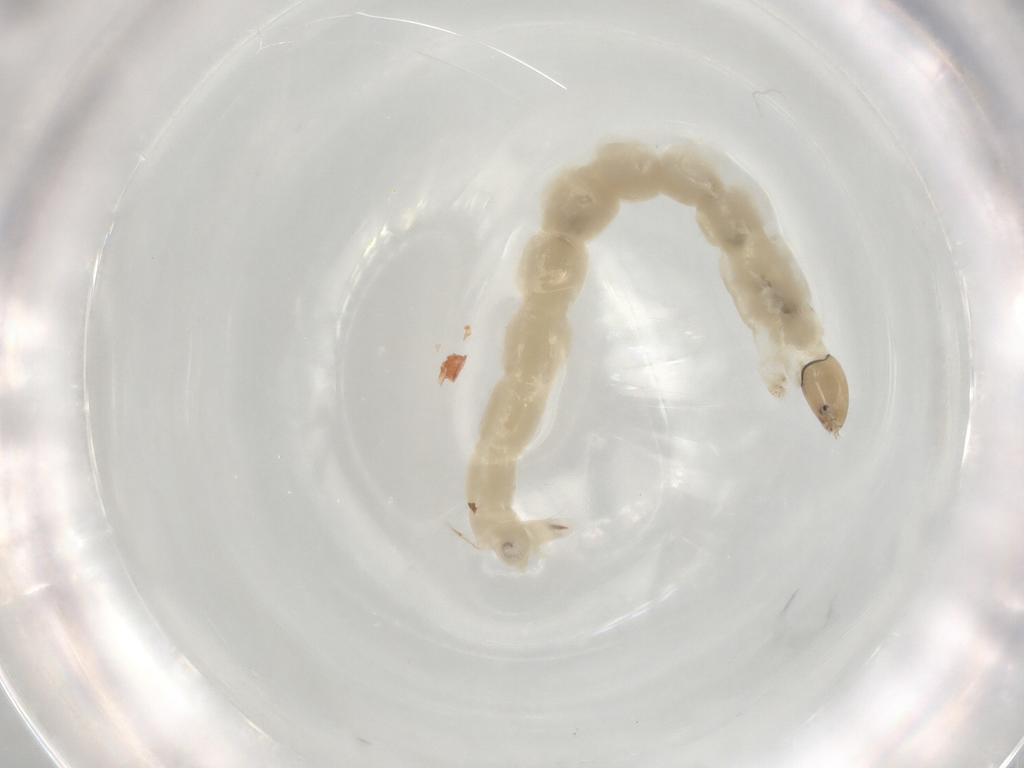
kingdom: Animalia
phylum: Arthropoda
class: Insecta
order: Diptera
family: Chironomidae
